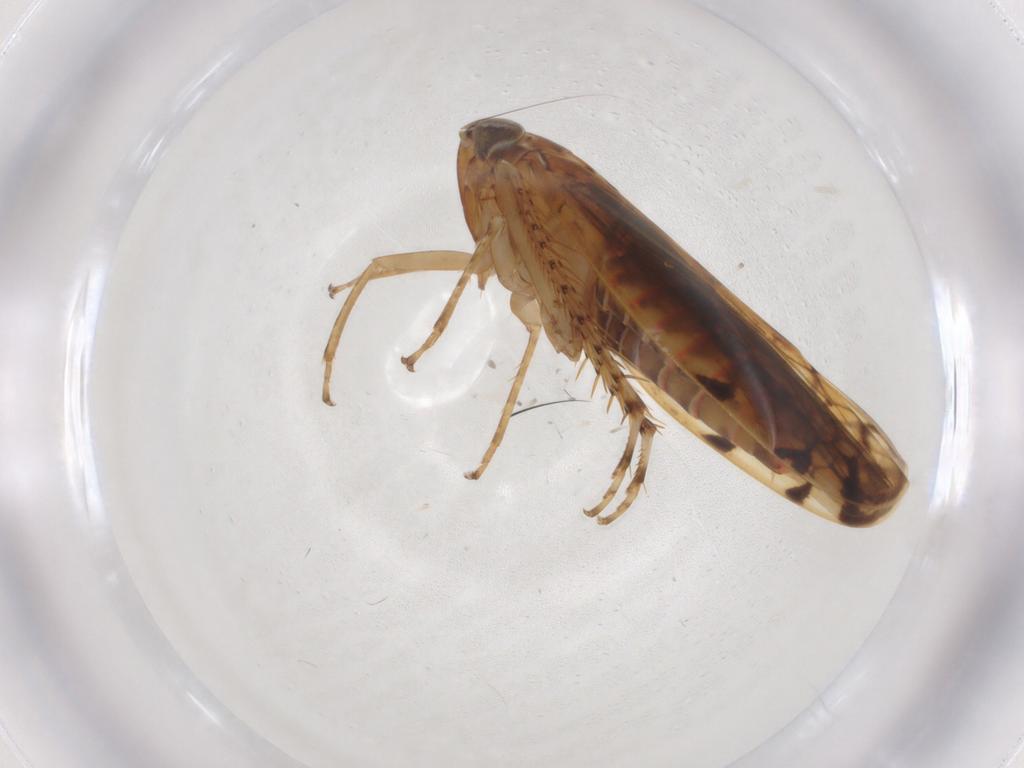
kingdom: Animalia
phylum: Arthropoda
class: Insecta
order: Hemiptera
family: Cicadellidae
